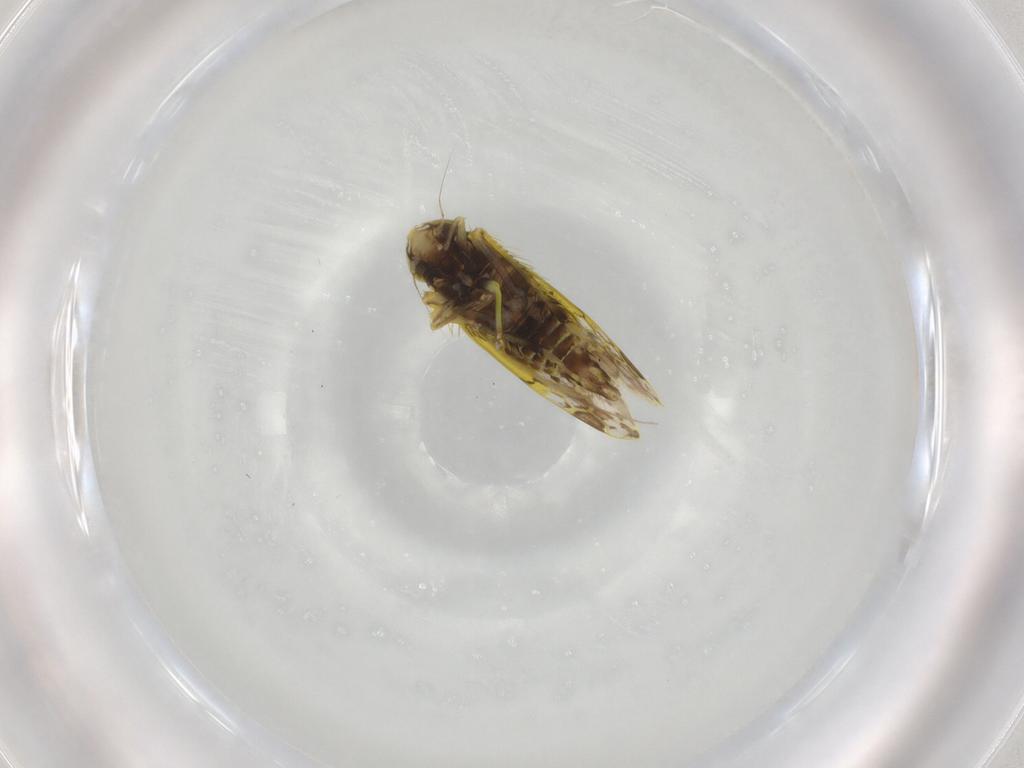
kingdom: Animalia
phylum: Arthropoda
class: Insecta
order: Hemiptera
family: Cicadellidae
